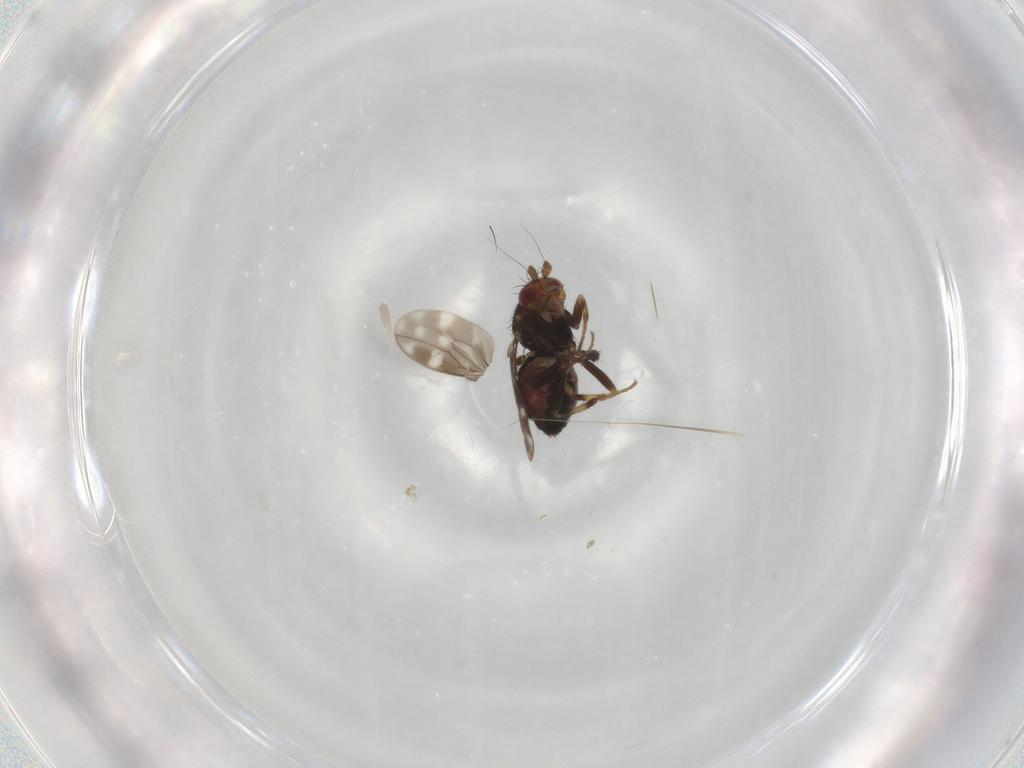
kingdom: Animalia
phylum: Arthropoda
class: Insecta
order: Diptera
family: Sphaeroceridae
